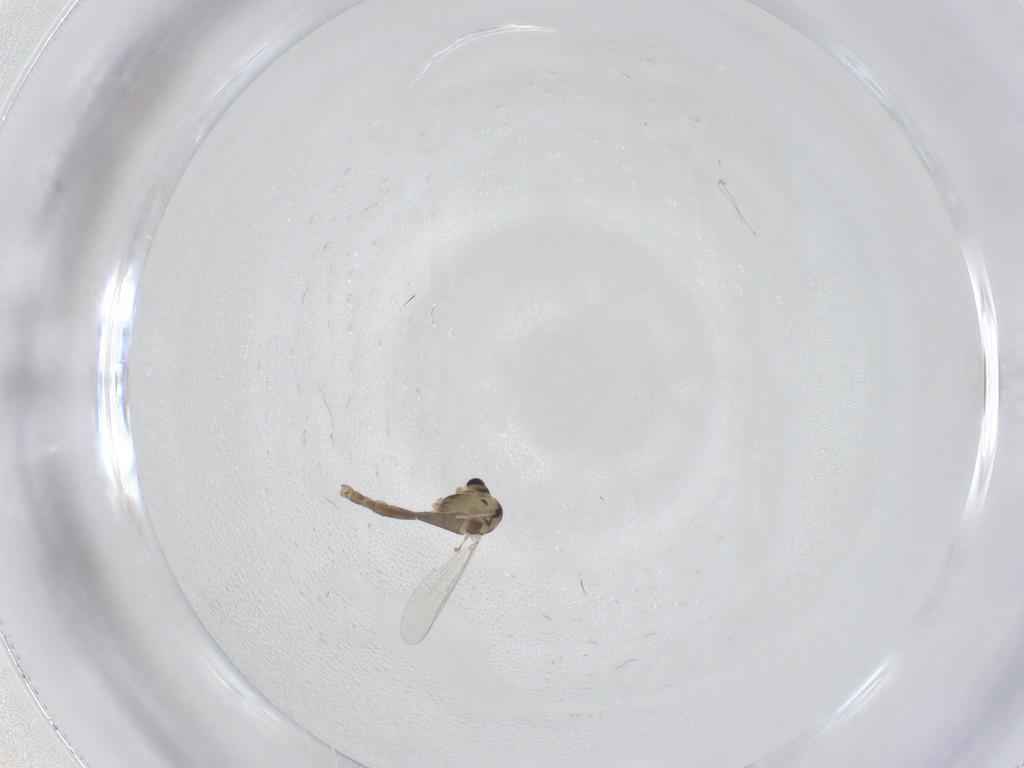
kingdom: Animalia
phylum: Arthropoda
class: Insecta
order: Diptera
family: Chironomidae
